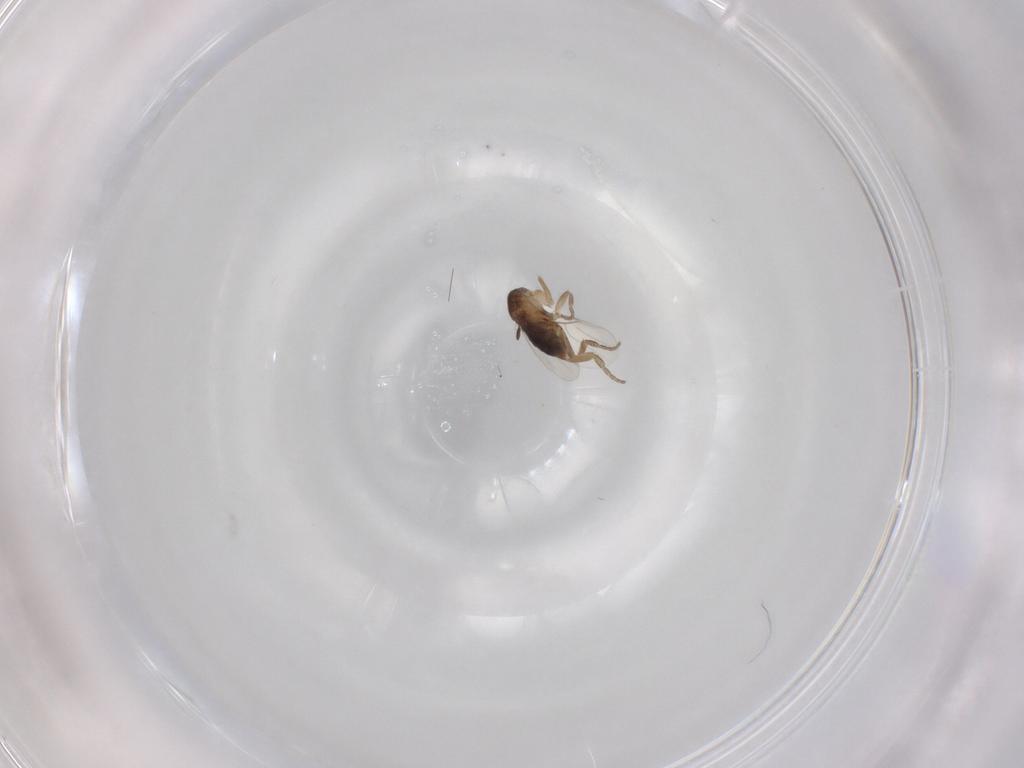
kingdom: Animalia
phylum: Arthropoda
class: Insecta
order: Diptera
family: Phoridae
